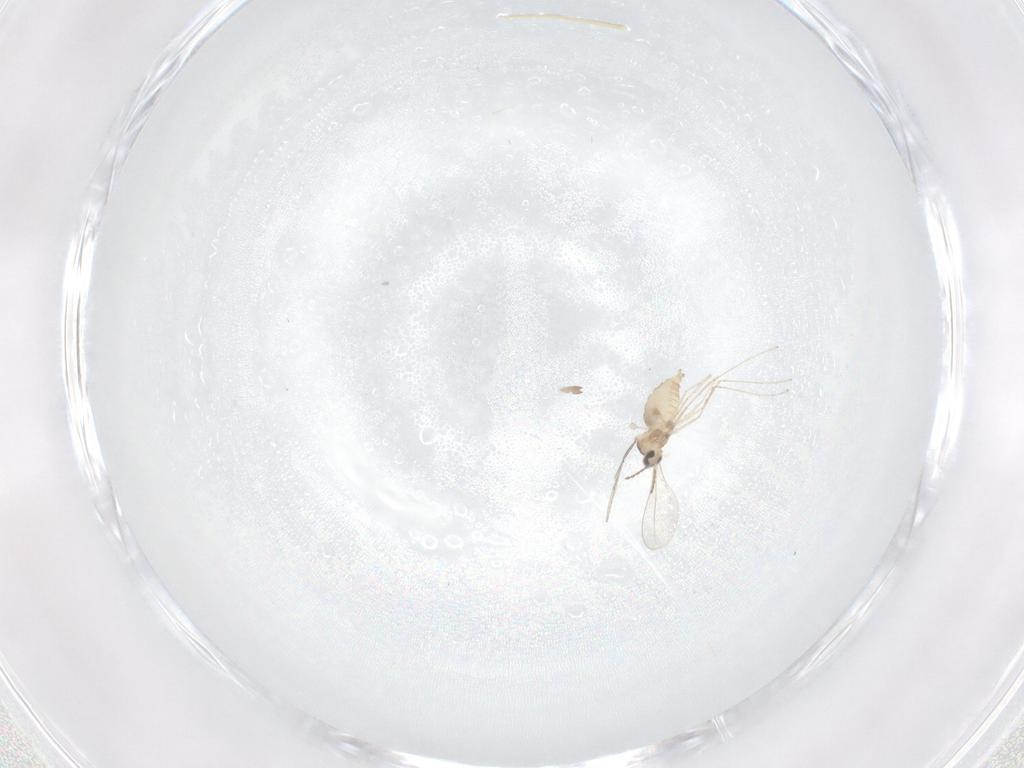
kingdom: Animalia
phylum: Arthropoda
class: Insecta
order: Diptera
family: Cecidomyiidae
